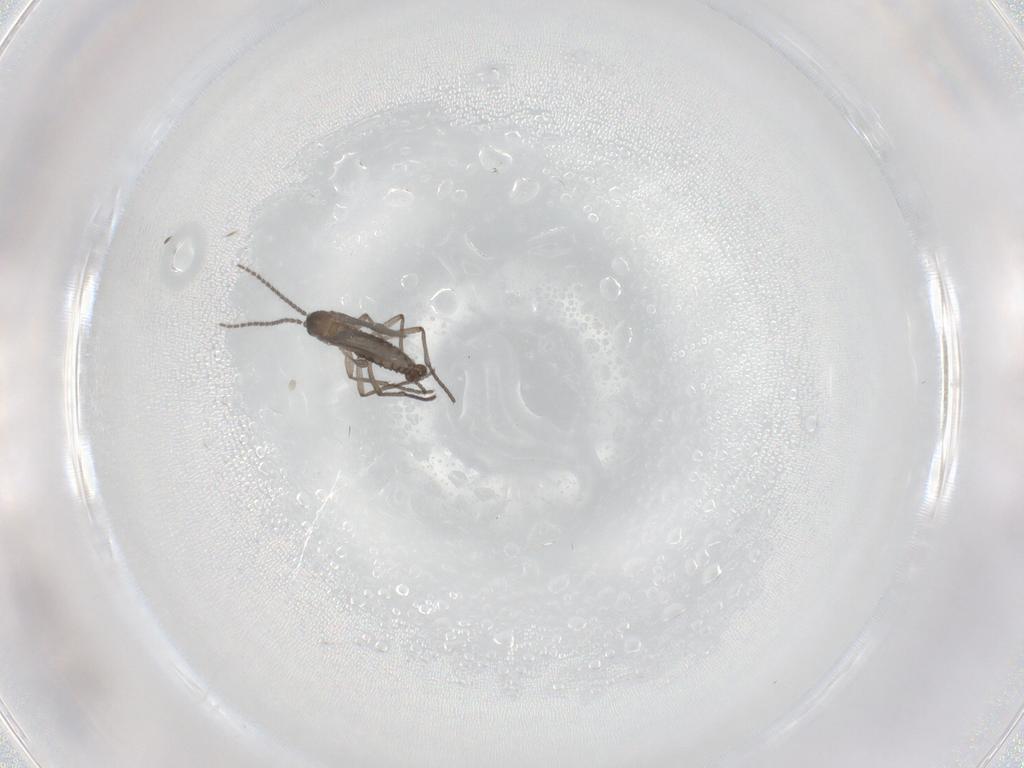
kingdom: Animalia
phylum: Arthropoda
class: Insecta
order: Diptera
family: Sciaridae
